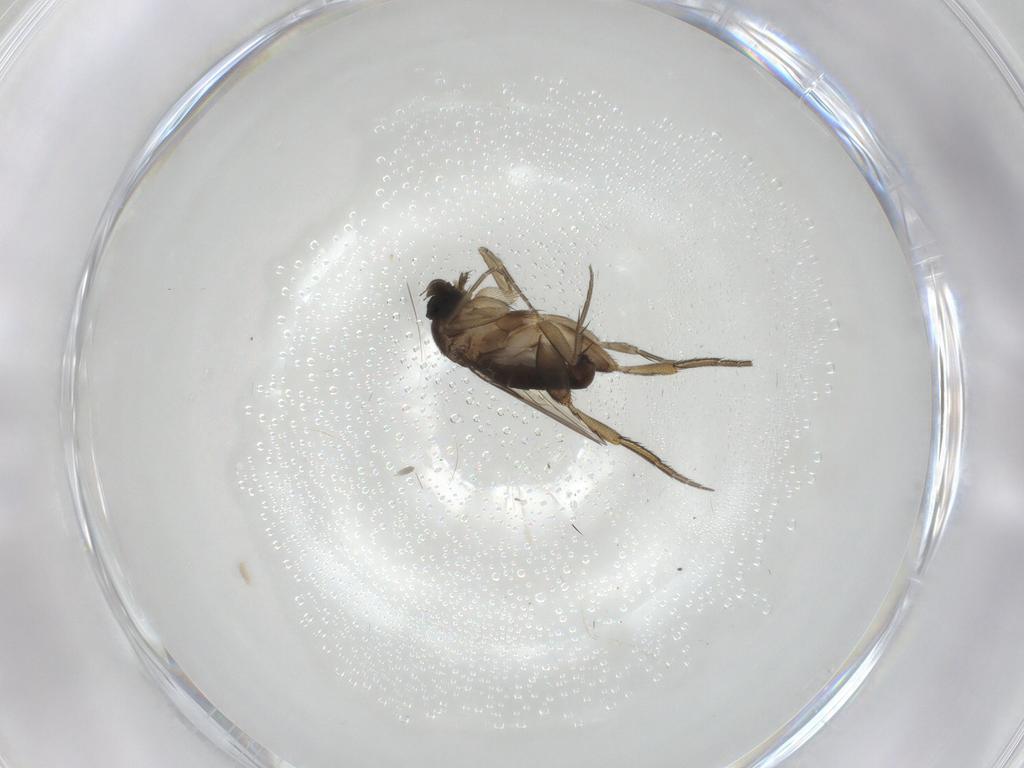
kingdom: Animalia
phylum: Arthropoda
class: Insecta
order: Diptera
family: Phoridae
